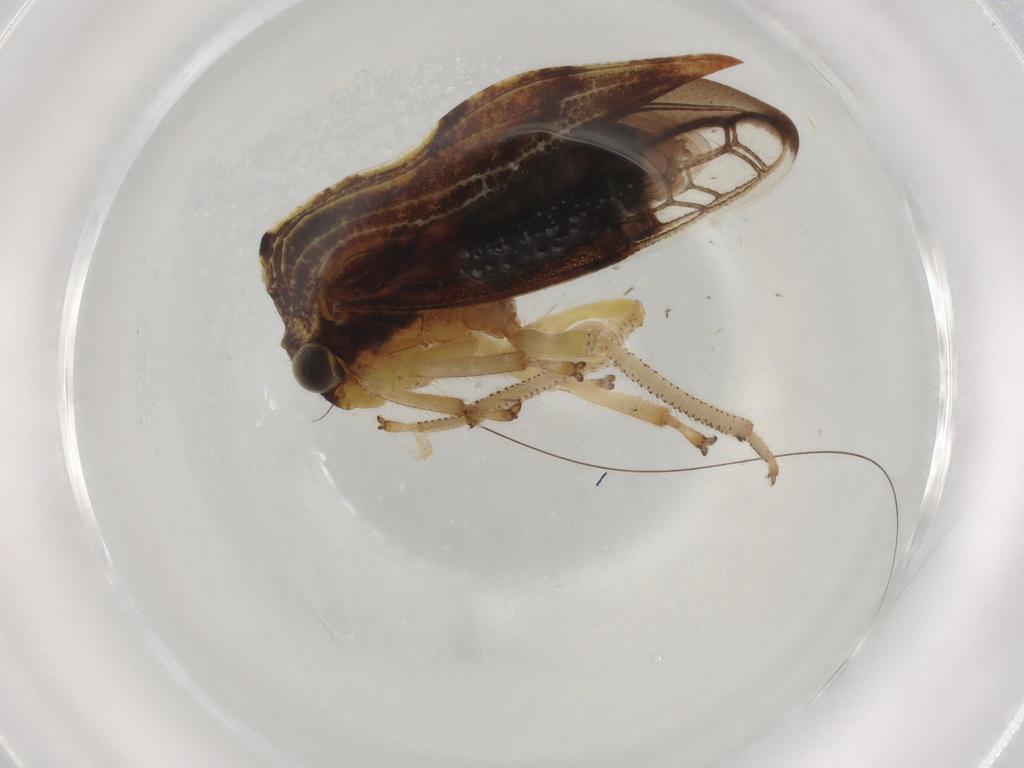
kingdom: Animalia
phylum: Arthropoda
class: Insecta
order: Hemiptera
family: Membracidae
